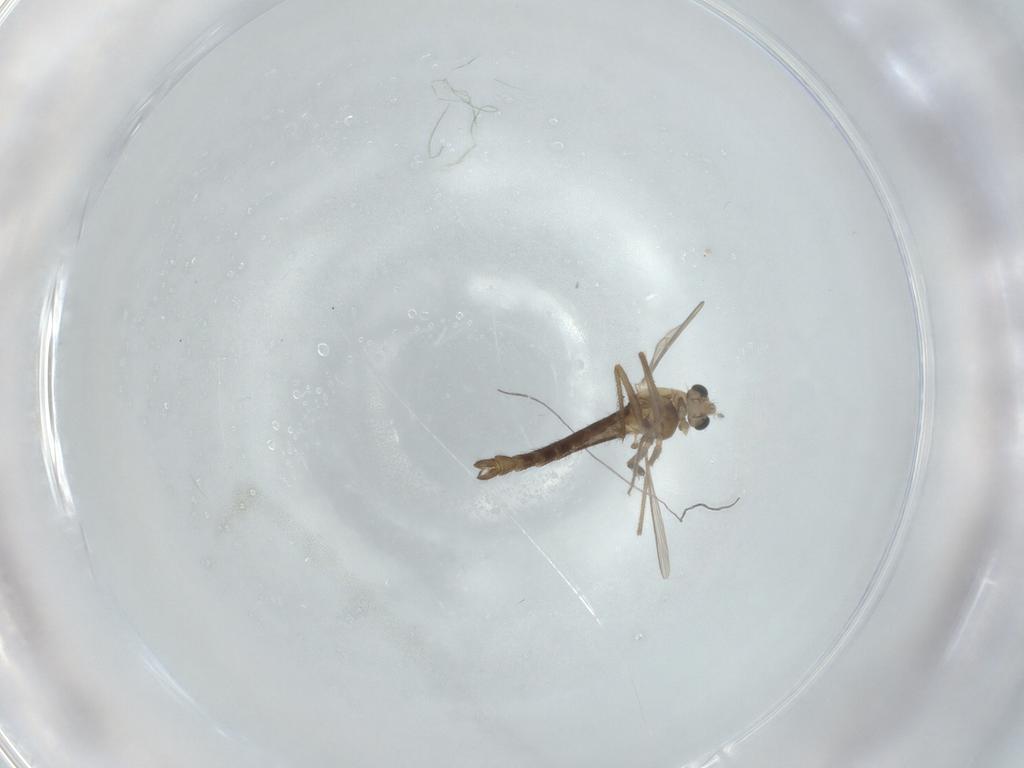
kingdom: Animalia
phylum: Arthropoda
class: Insecta
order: Diptera
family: Chironomidae
